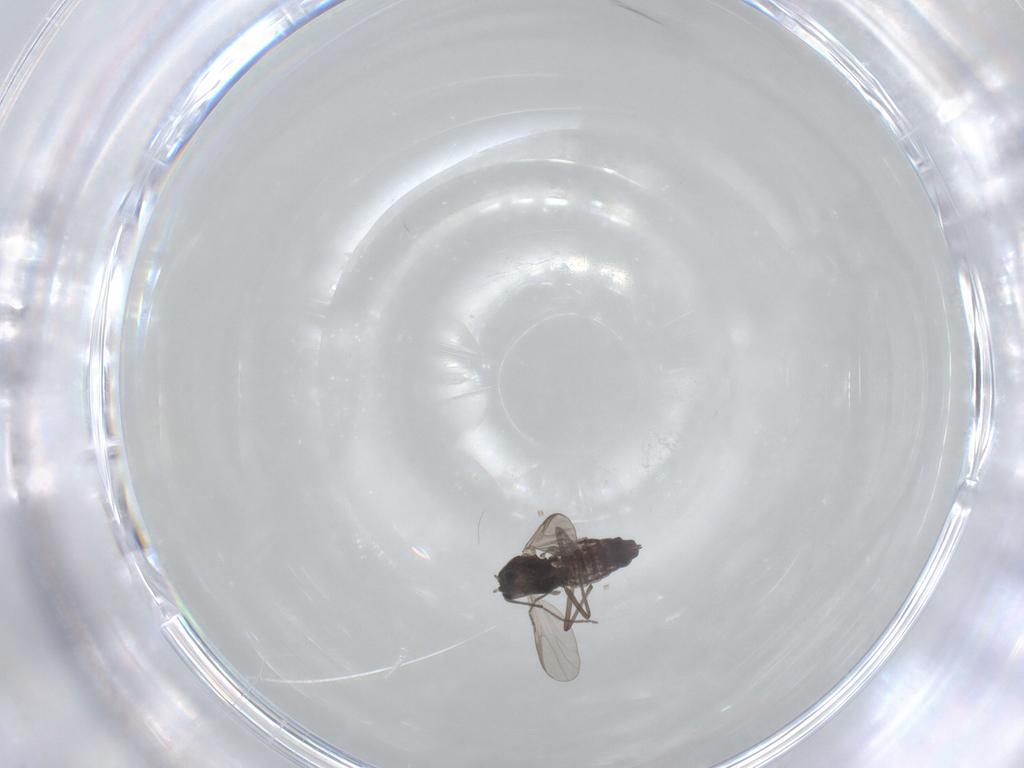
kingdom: Animalia
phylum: Arthropoda
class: Insecta
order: Diptera
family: Chironomidae
